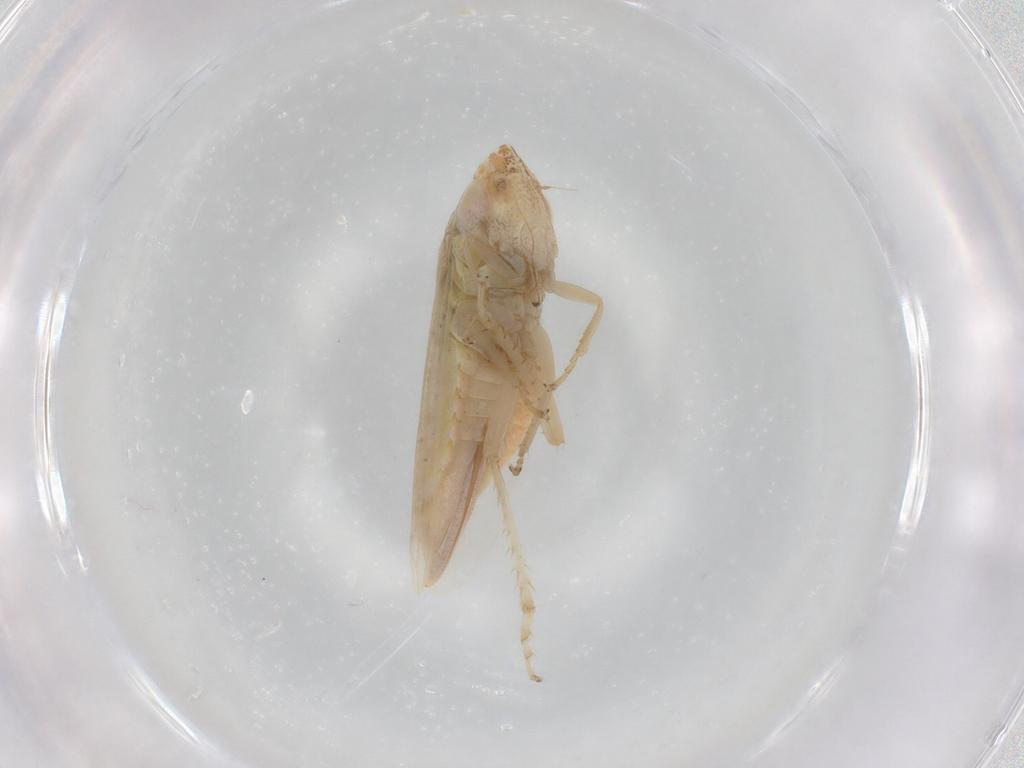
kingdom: Animalia
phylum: Arthropoda
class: Insecta
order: Hemiptera
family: Cicadellidae
